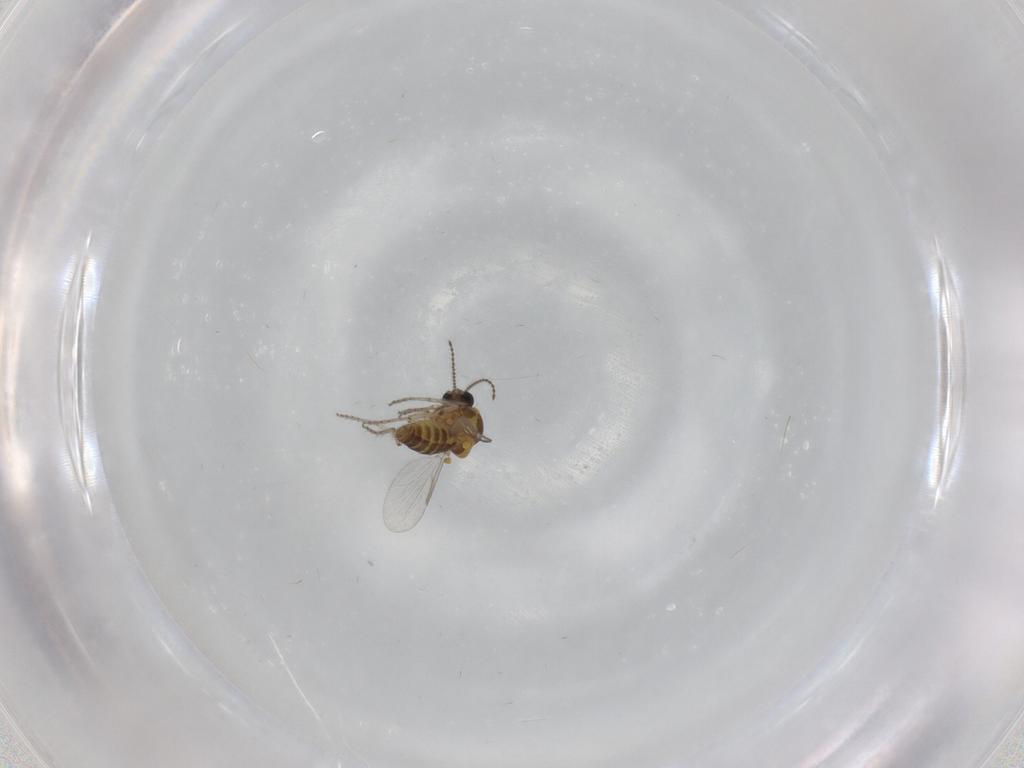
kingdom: Animalia
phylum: Arthropoda
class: Insecta
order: Diptera
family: Ceratopogonidae
